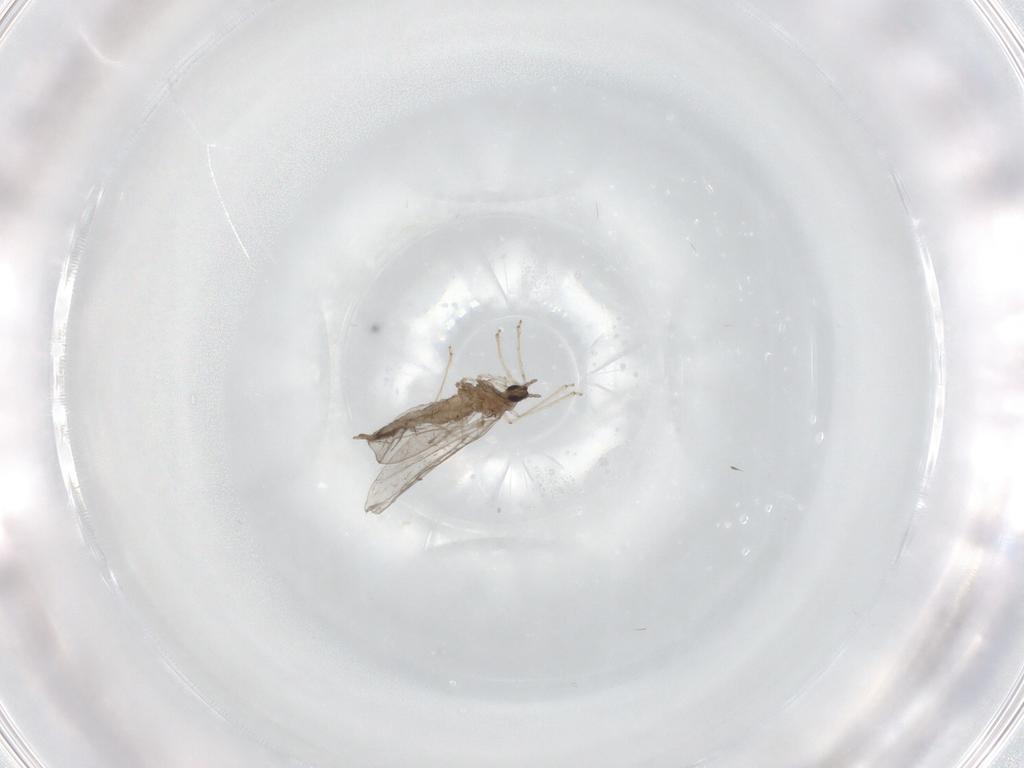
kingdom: Animalia
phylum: Arthropoda
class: Insecta
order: Diptera
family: Cecidomyiidae
